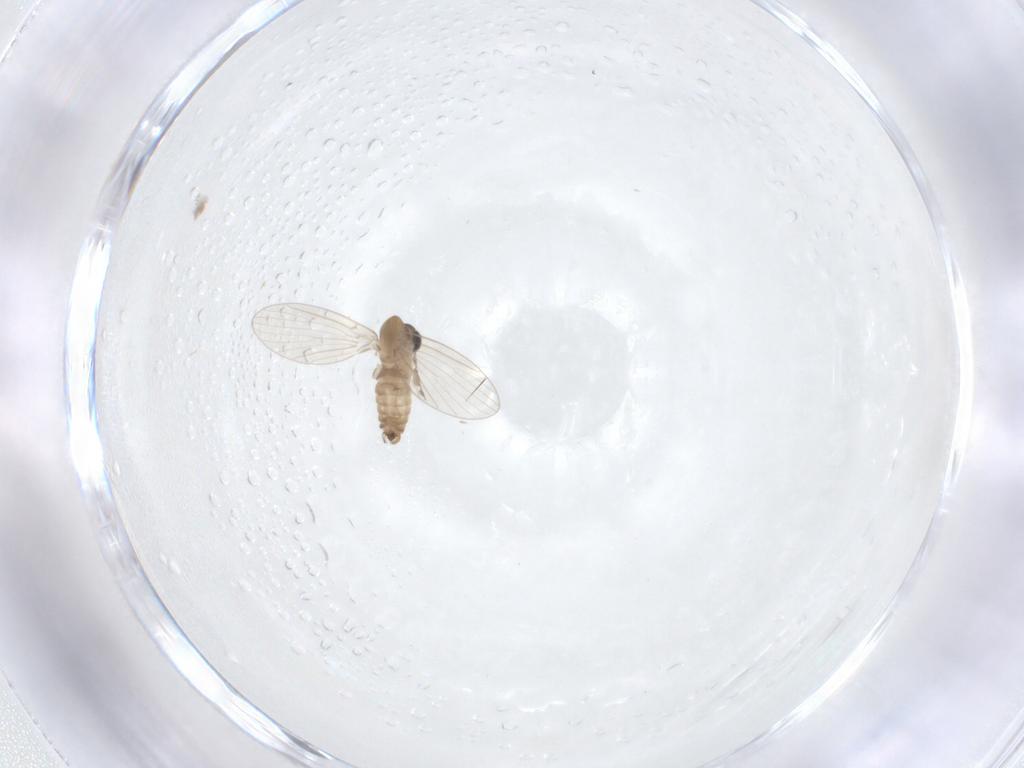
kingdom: Animalia
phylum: Arthropoda
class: Insecta
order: Diptera
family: Psychodidae
